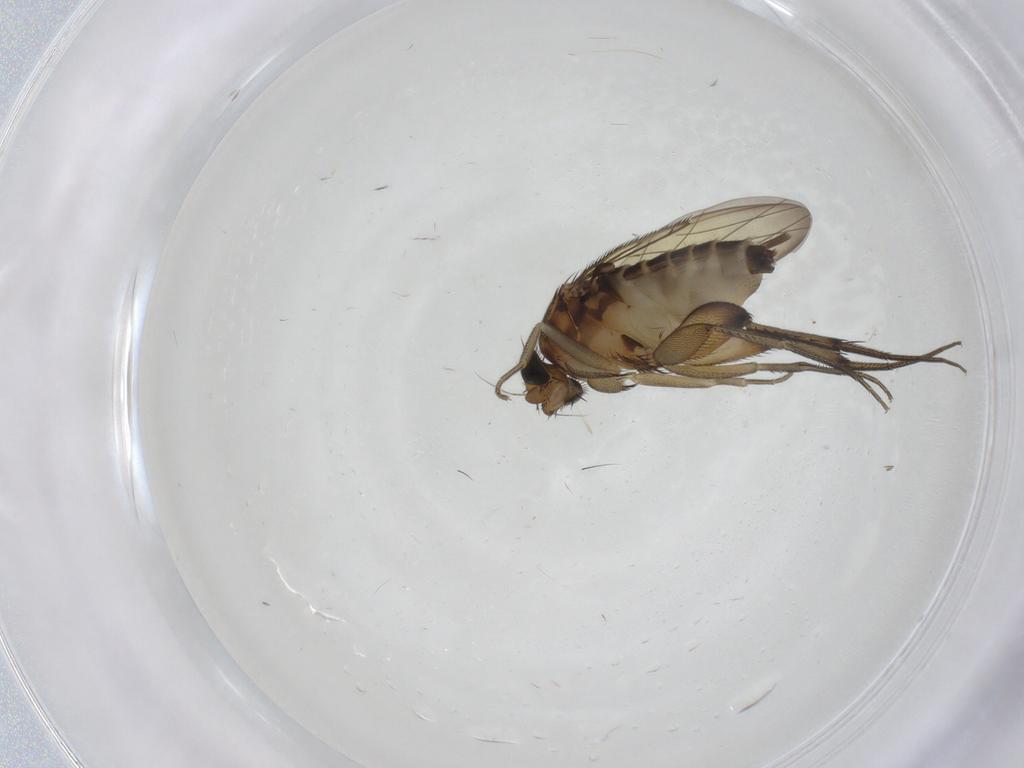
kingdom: Animalia
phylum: Arthropoda
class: Insecta
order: Diptera
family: Phoridae
